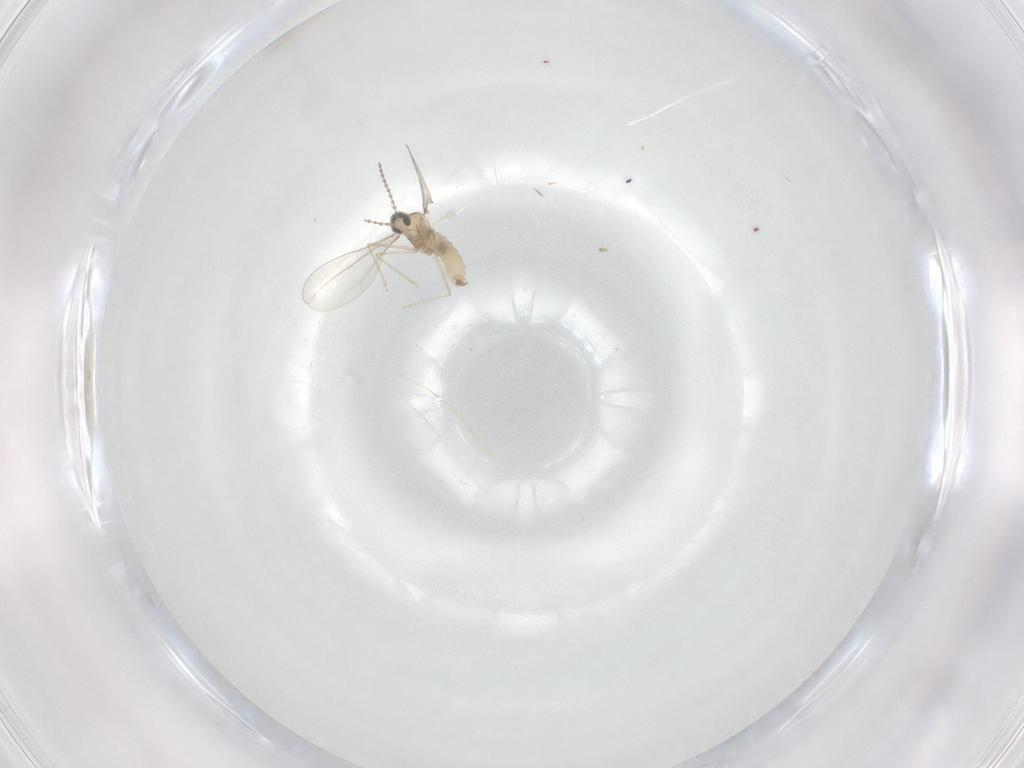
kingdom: Animalia
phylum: Arthropoda
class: Insecta
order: Diptera
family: Cecidomyiidae
